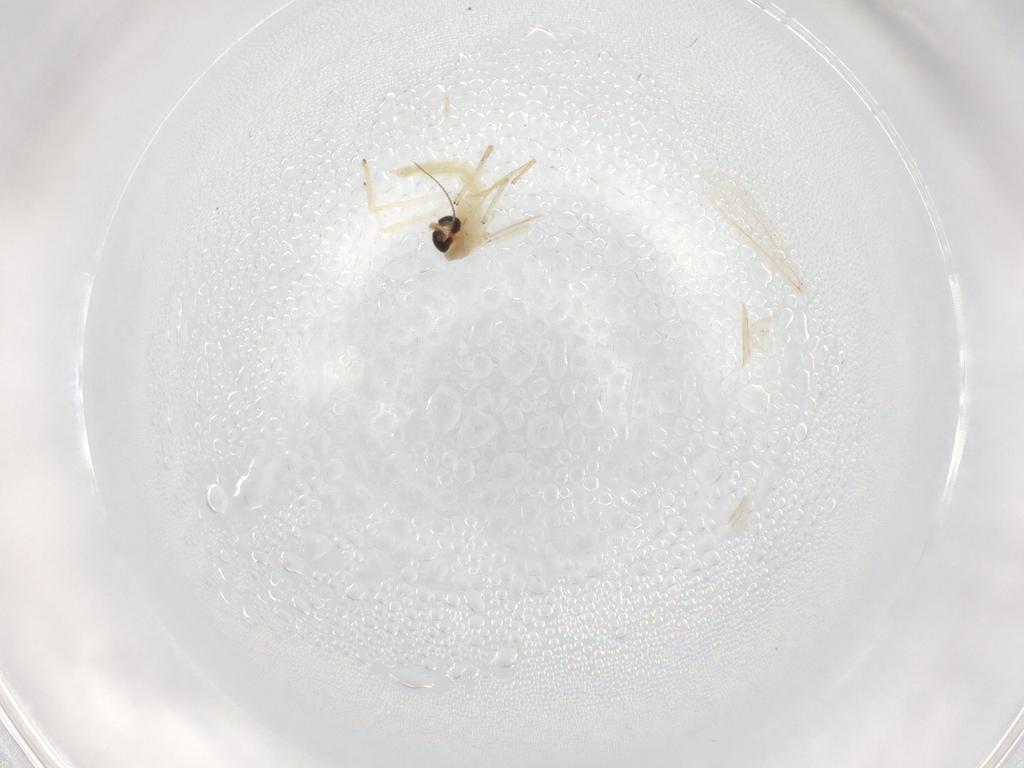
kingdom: Animalia
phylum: Arthropoda
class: Insecta
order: Diptera
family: Chironomidae
